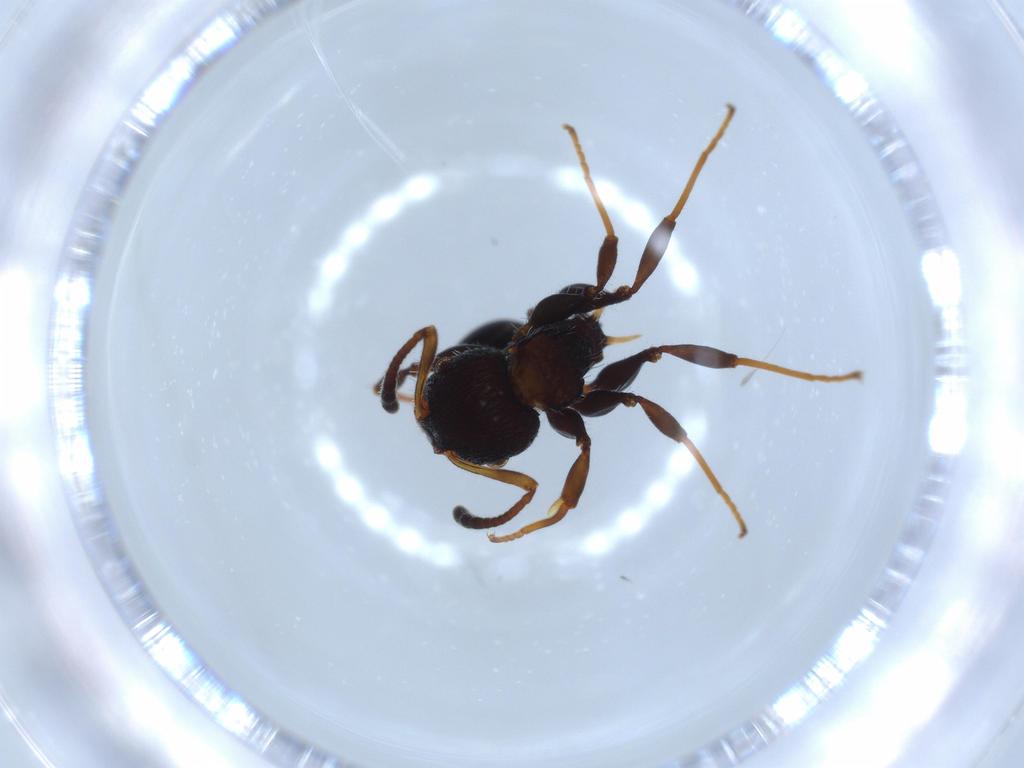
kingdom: Animalia
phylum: Arthropoda
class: Insecta
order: Hymenoptera
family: Formicidae
